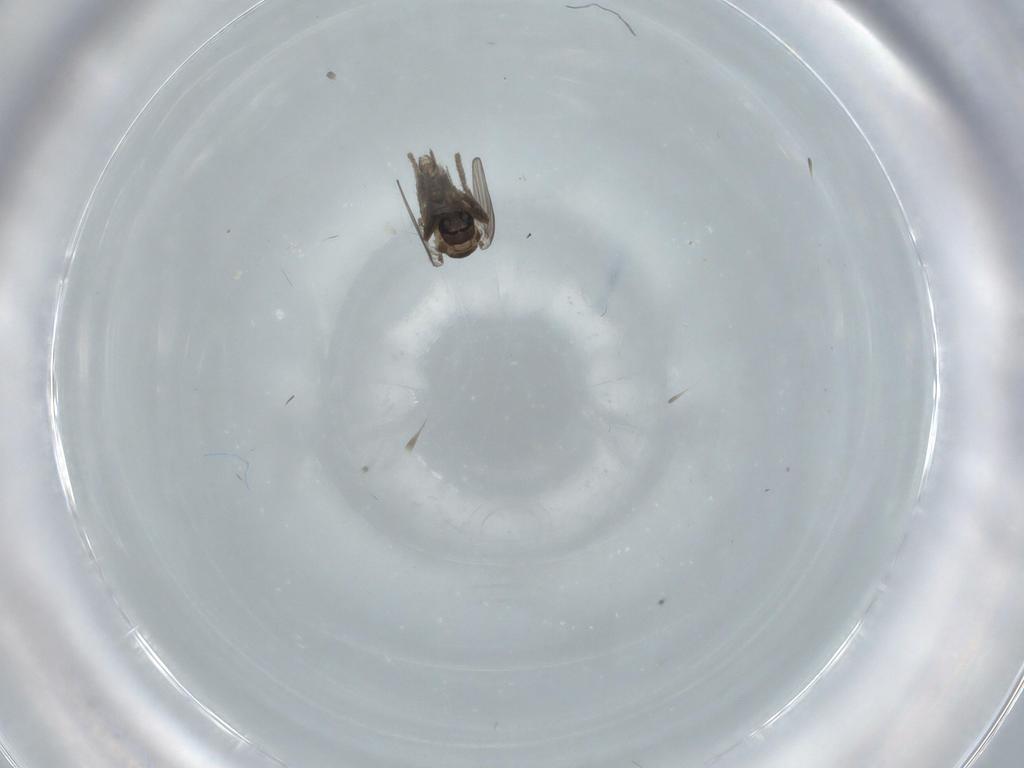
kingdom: Animalia
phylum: Arthropoda
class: Insecta
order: Diptera
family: Psychodidae
